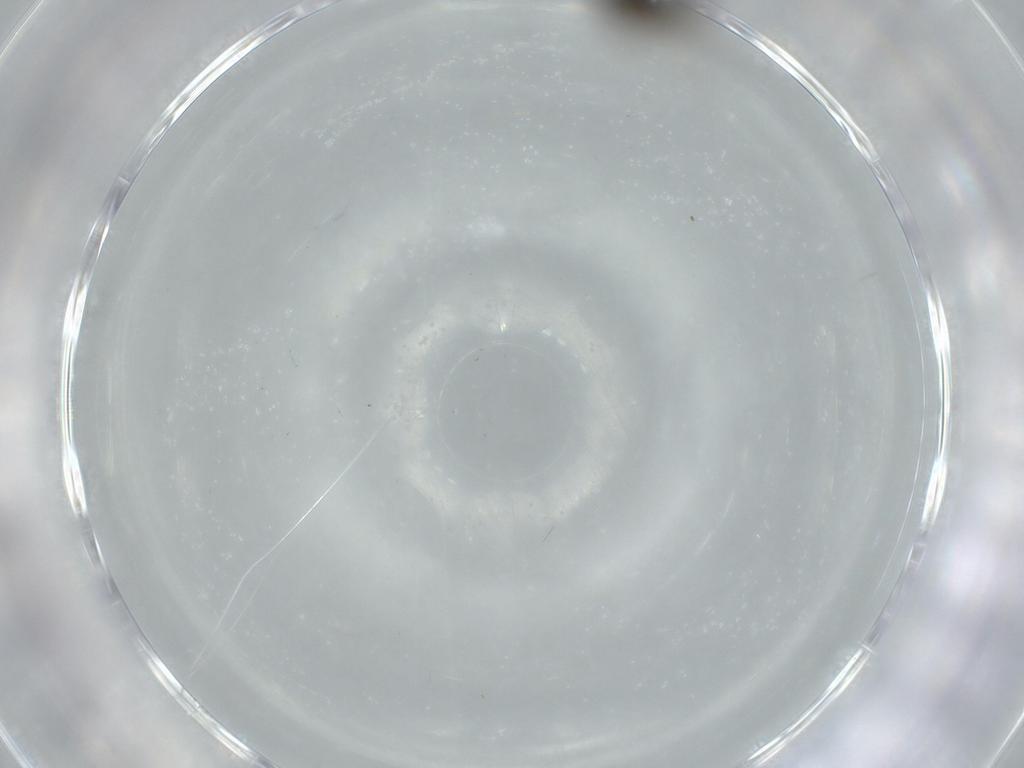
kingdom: Animalia
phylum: Arthropoda
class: Insecta
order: Diptera
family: Phoridae
